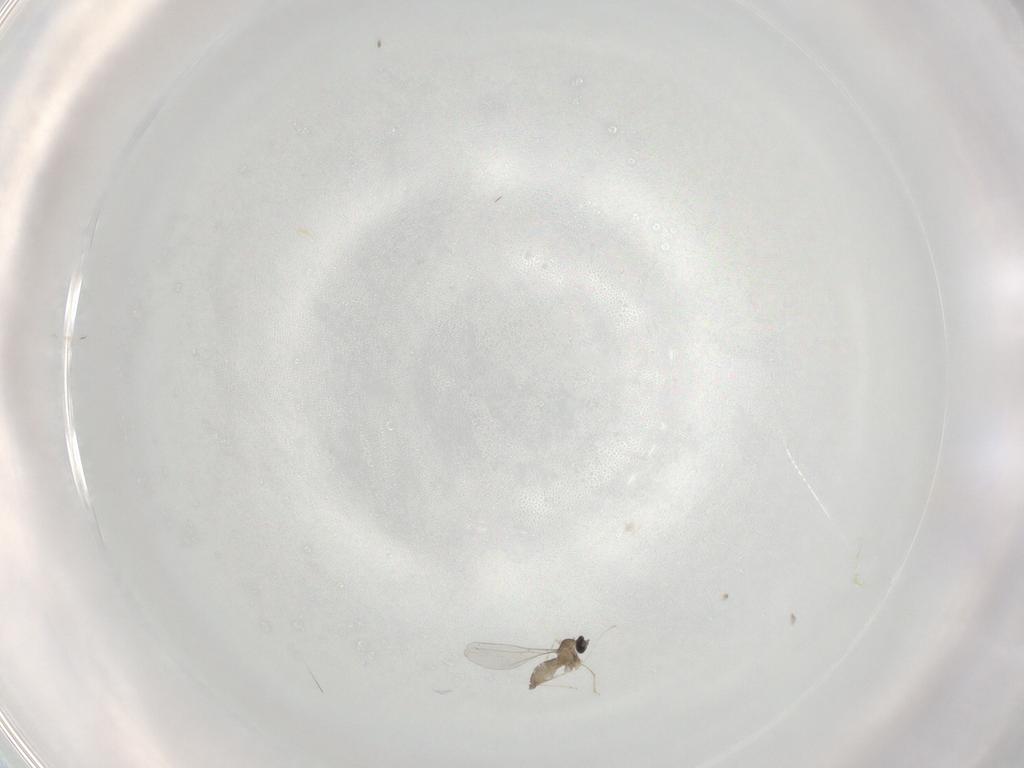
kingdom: Animalia
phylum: Arthropoda
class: Insecta
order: Diptera
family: Cecidomyiidae
